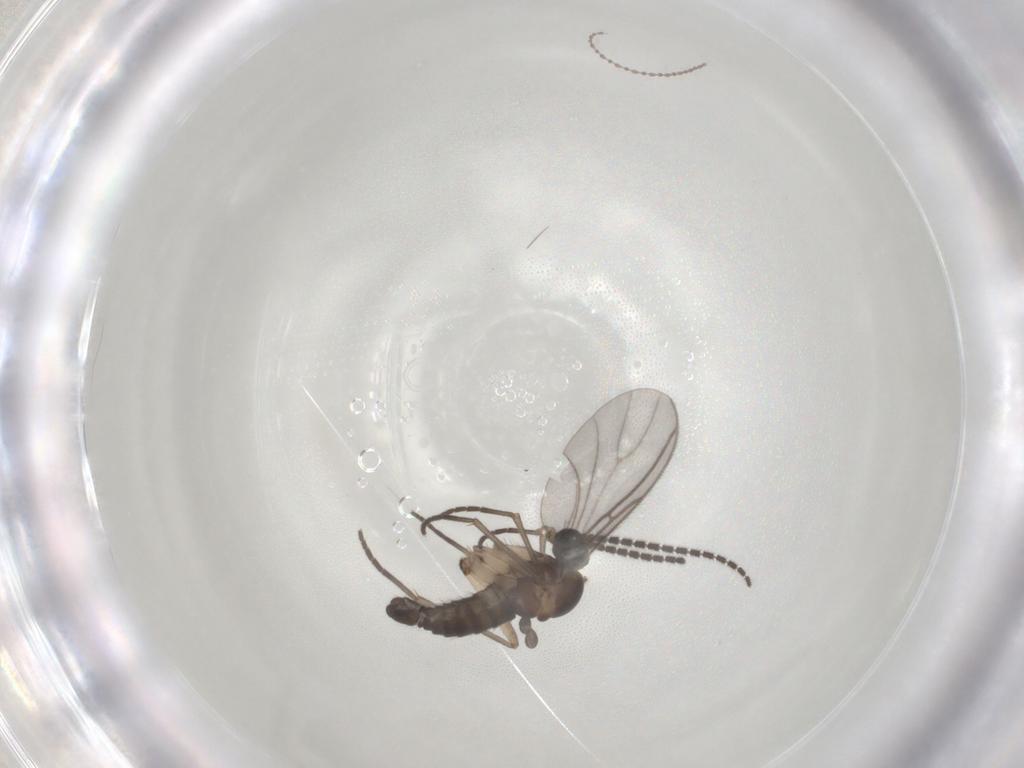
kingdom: Animalia
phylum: Arthropoda
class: Insecta
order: Diptera
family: Sciaridae
